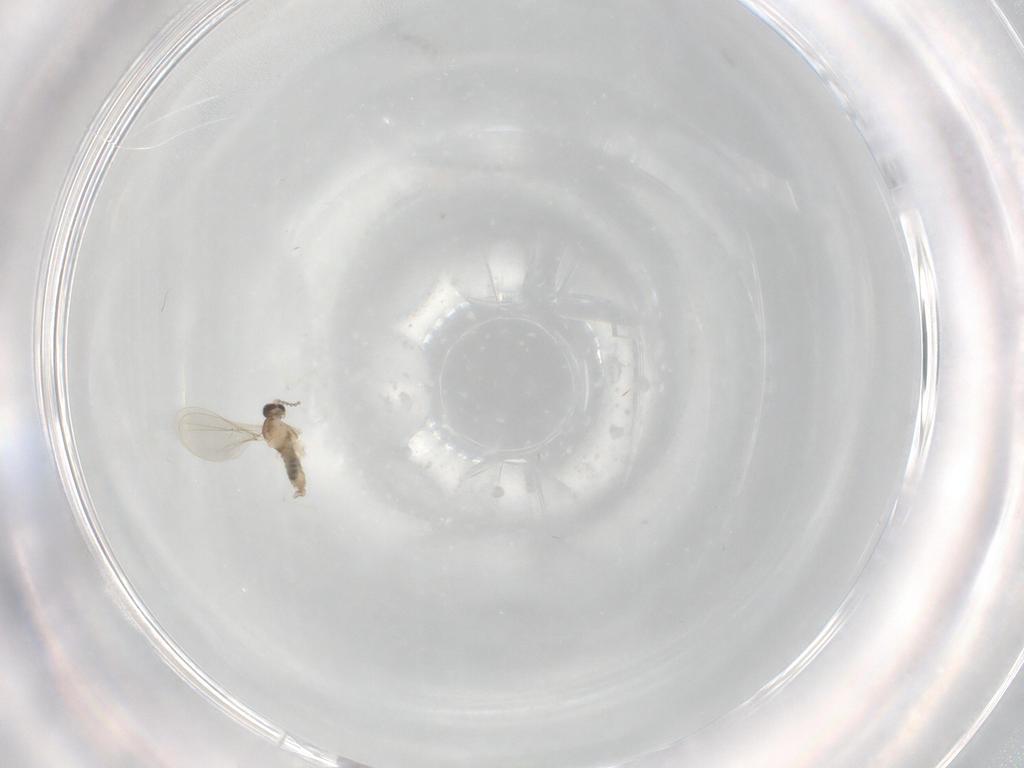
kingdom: Animalia
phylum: Arthropoda
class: Insecta
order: Diptera
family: Cecidomyiidae
